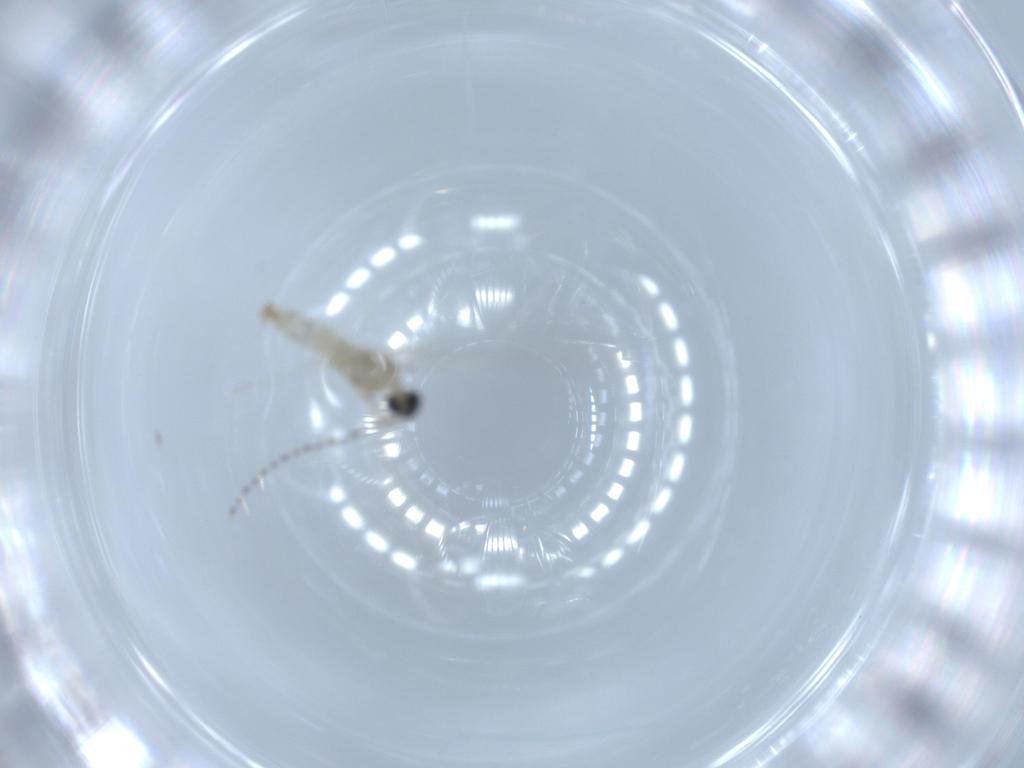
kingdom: Animalia
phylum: Arthropoda
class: Insecta
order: Diptera
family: Cecidomyiidae
